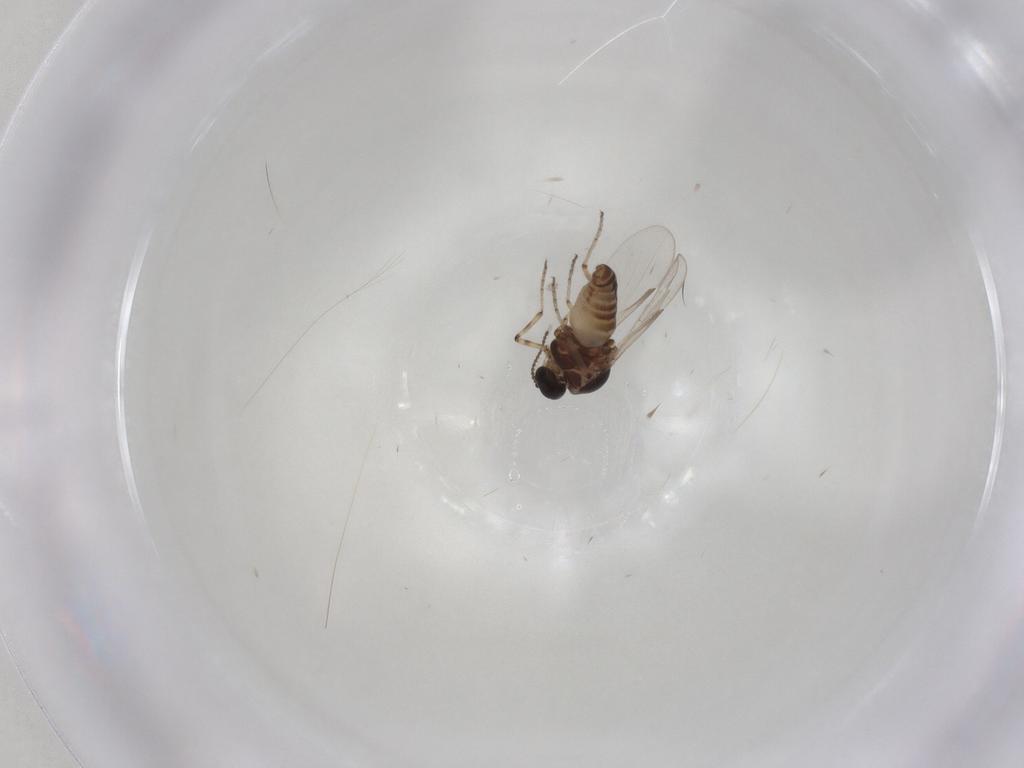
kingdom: Animalia
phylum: Arthropoda
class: Insecta
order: Diptera
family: Ceratopogonidae
